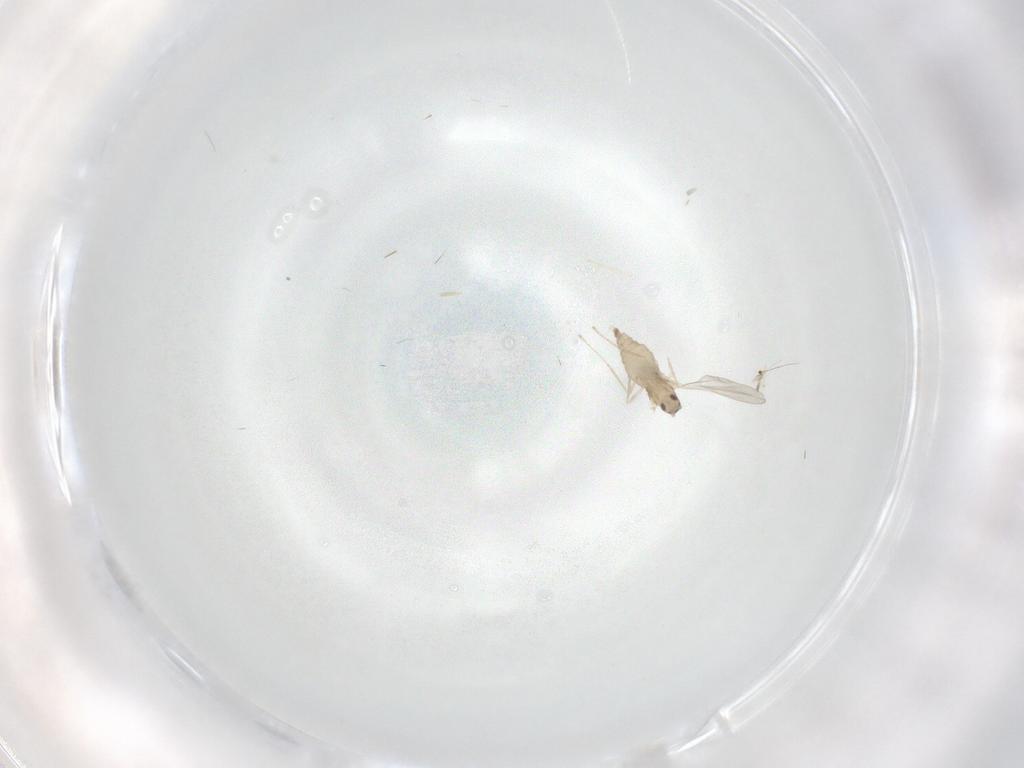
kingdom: Animalia
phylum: Arthropoda
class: Insecta
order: Diptera
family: Cecidomyiidae
